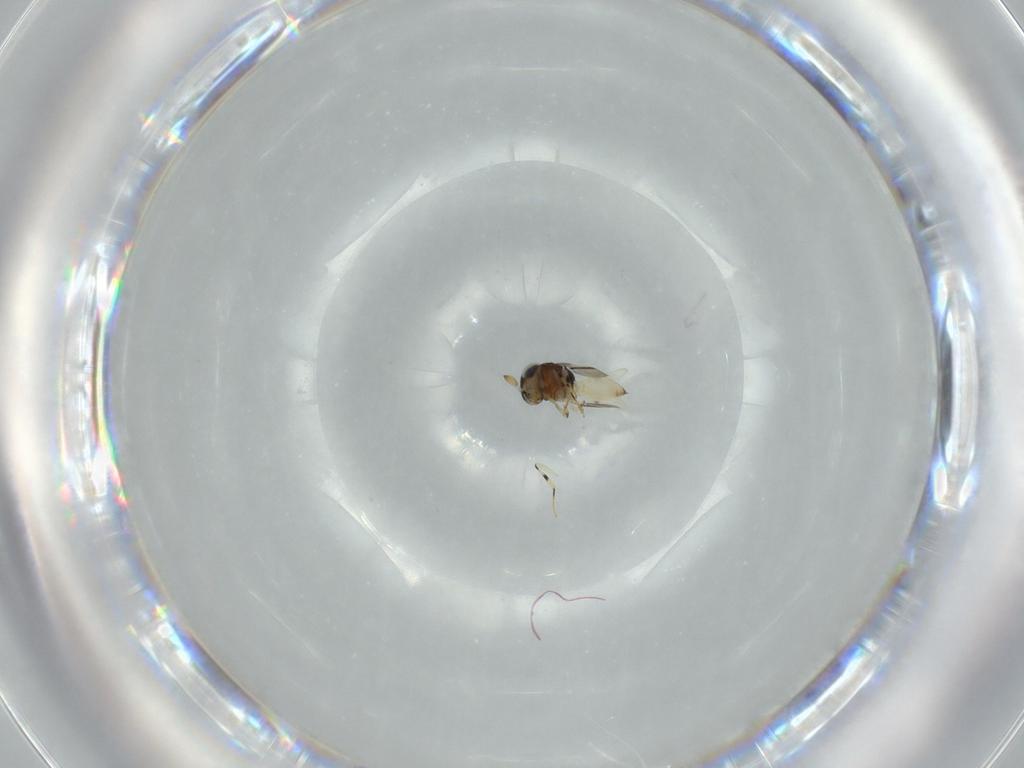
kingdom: Animalia
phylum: Arthropoda
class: Insecta
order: Hymenoptera
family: Scelionidae
